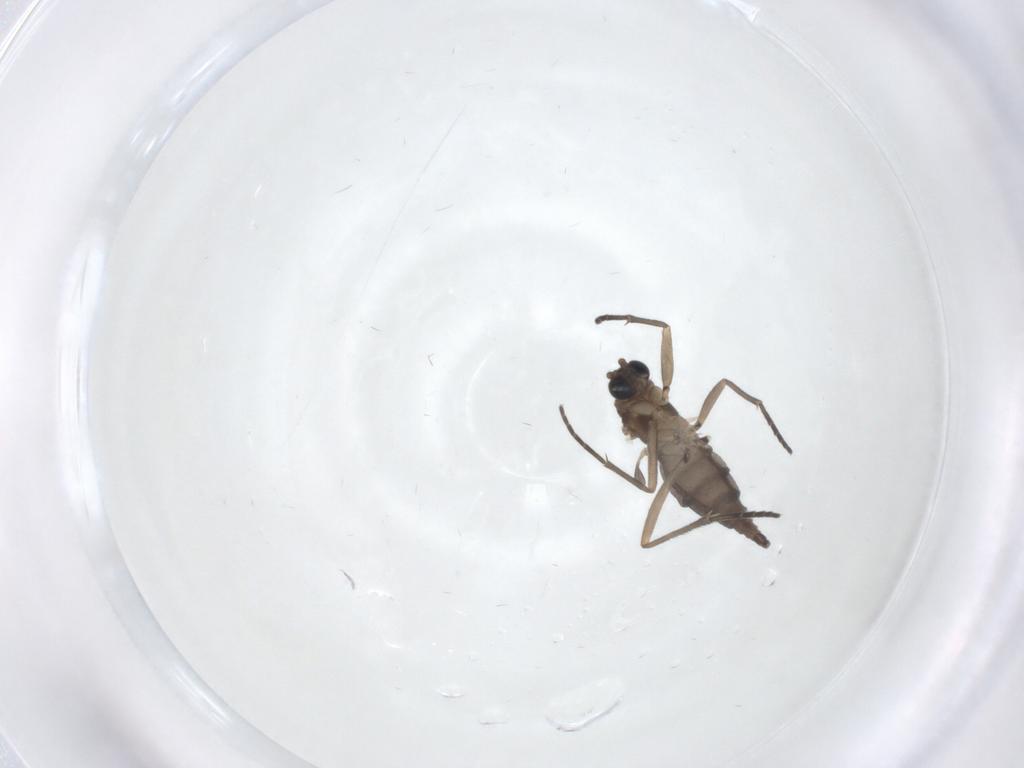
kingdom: Animalia
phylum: Arthropoda
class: Insecta
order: Diptera
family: Sciaridae
